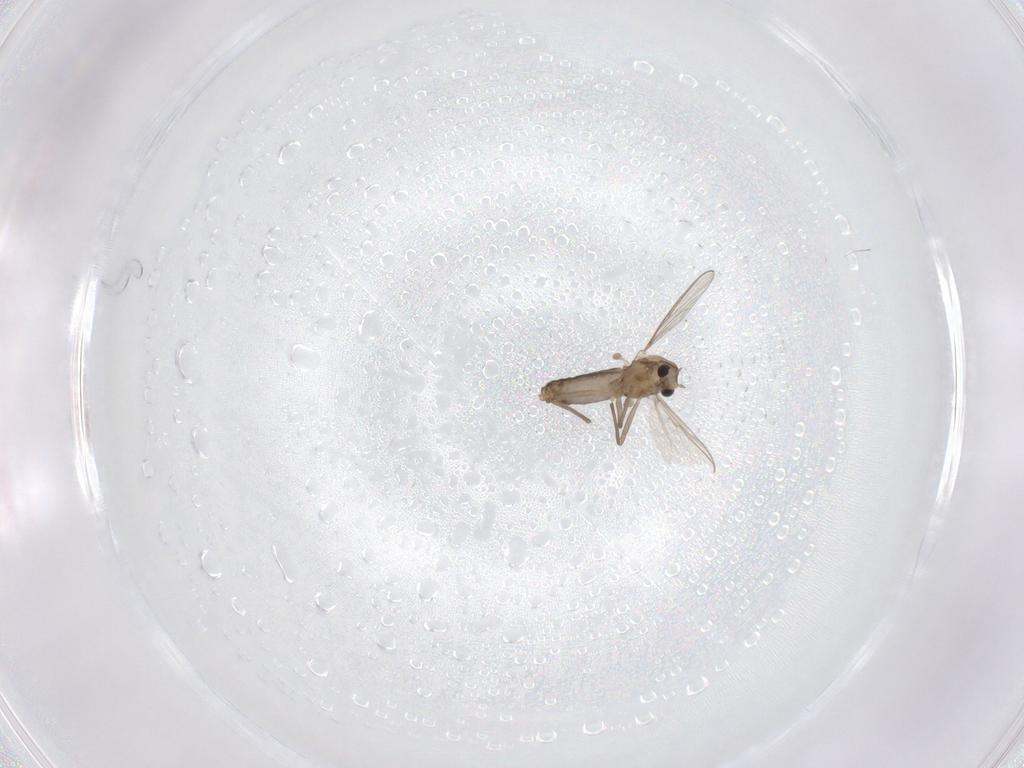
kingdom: Animalia
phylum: Arthropoda
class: Insecta
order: Diptera
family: Chironomidae
